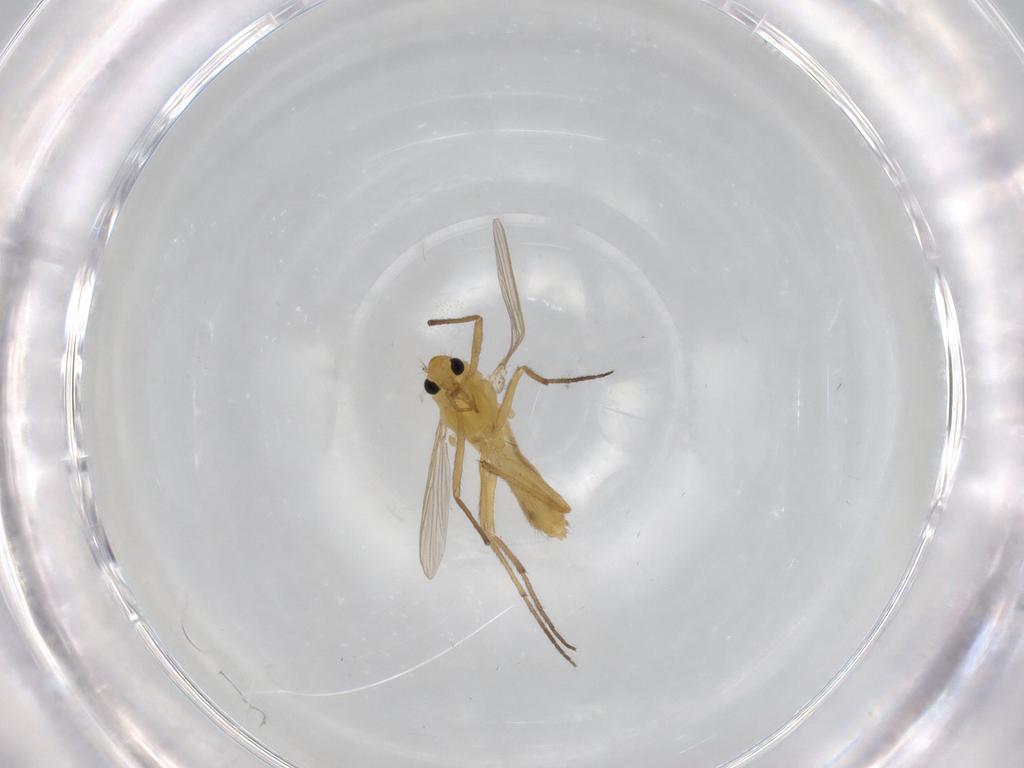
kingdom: Animalia
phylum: Arthropoda
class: Insecta
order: Diptera
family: Chironomidae
